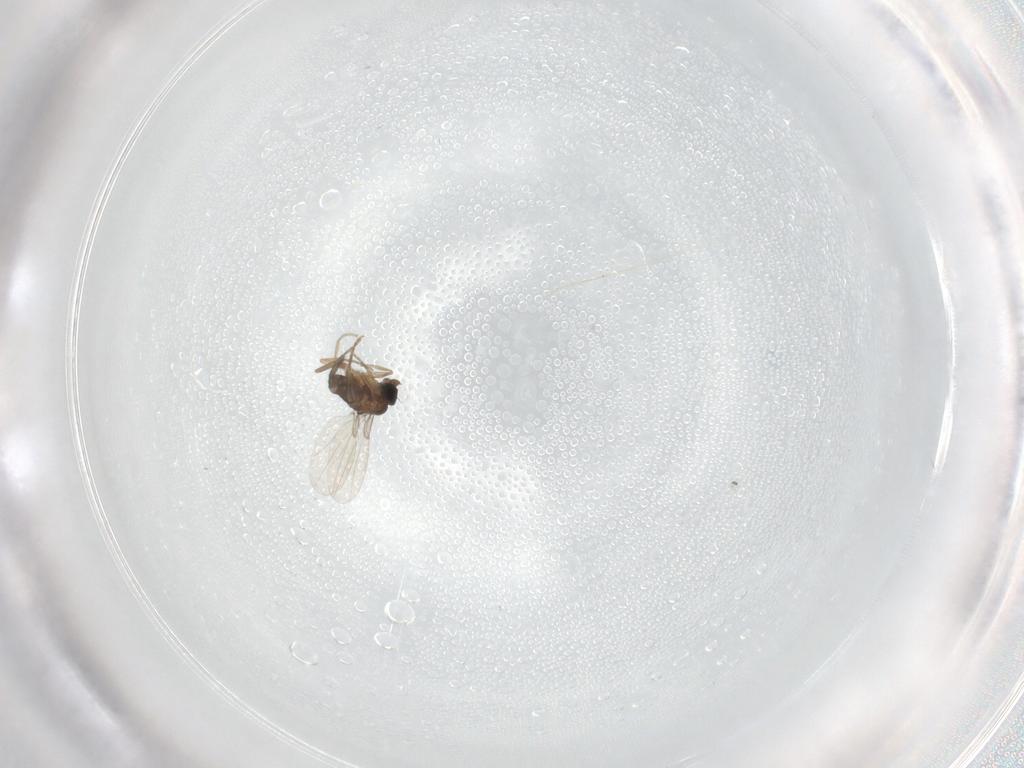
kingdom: Animalia
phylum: Arthropoda
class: Insecta
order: Diptera
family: Phoridae
